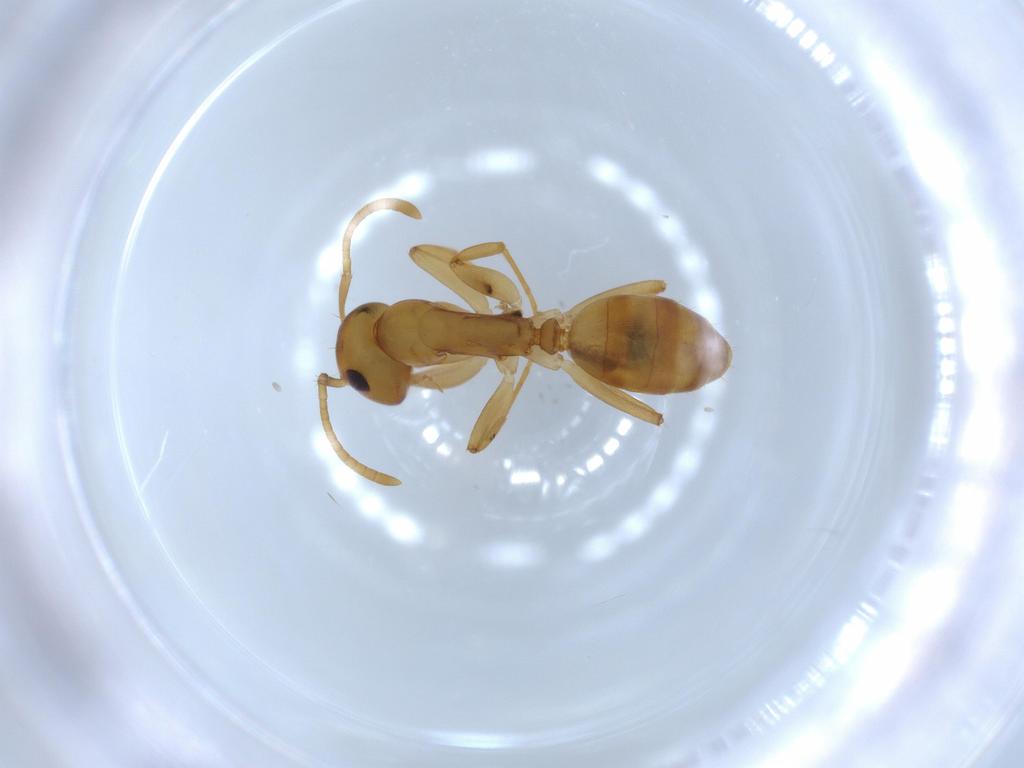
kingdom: Animalia
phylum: Arthropoda
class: Insecta
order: Hymenoptera
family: Formicidae
